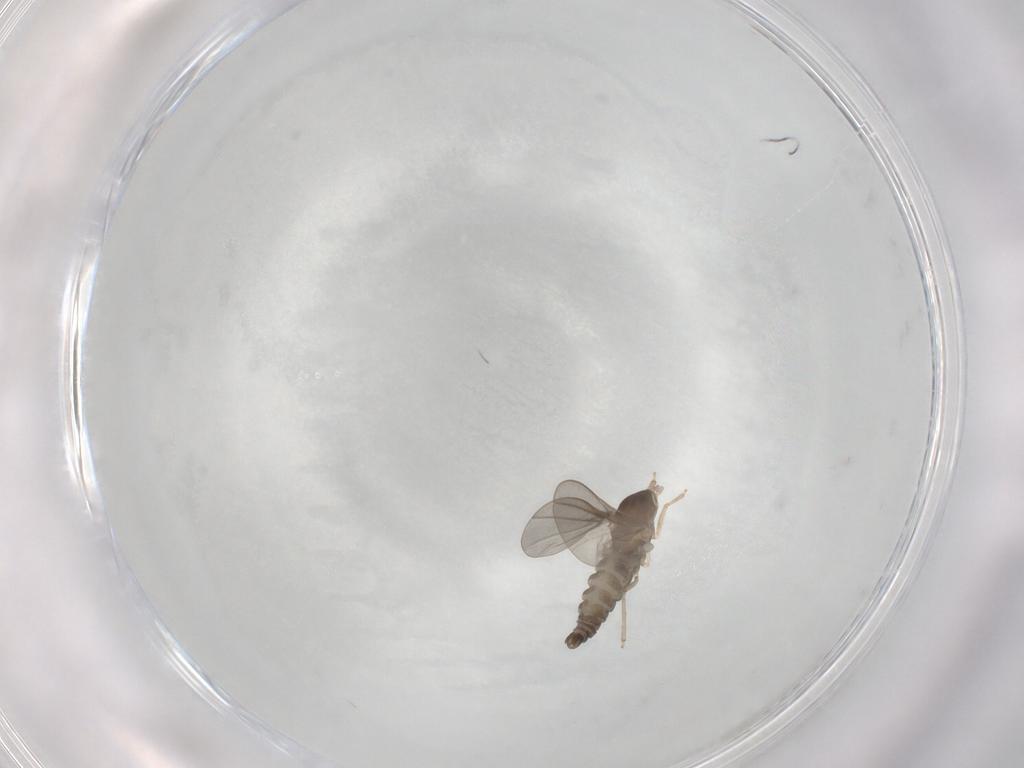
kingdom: Animalia
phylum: Arthropoda
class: Insecta
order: Diptera
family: Cecidomyiidae
